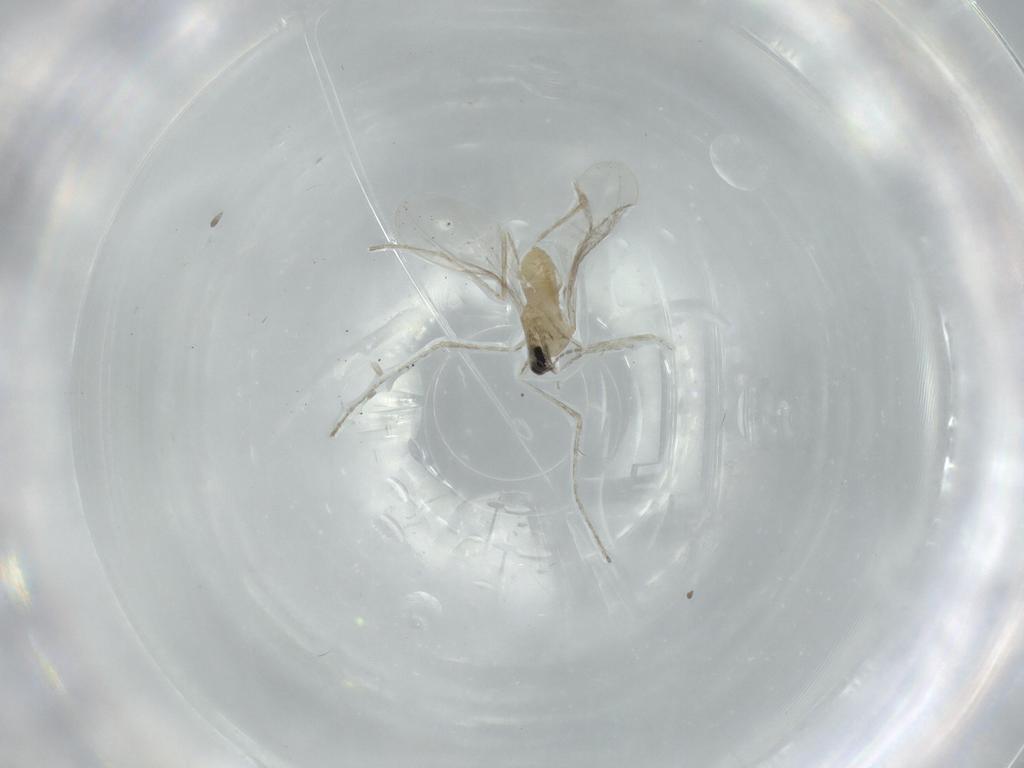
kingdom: Animalia
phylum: Arthropoda
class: Insecta
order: Diptera
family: Cecidomyiidae
